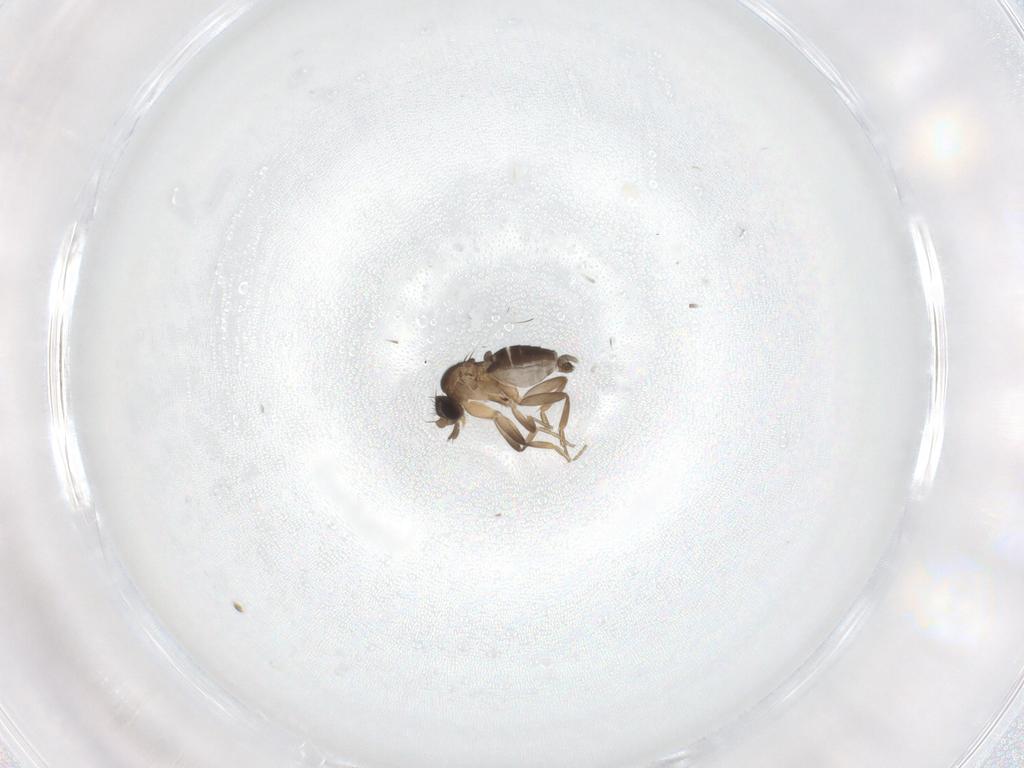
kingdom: Animalia
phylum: Arthropoda
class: Insecta
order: Diptera
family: Phoridae
